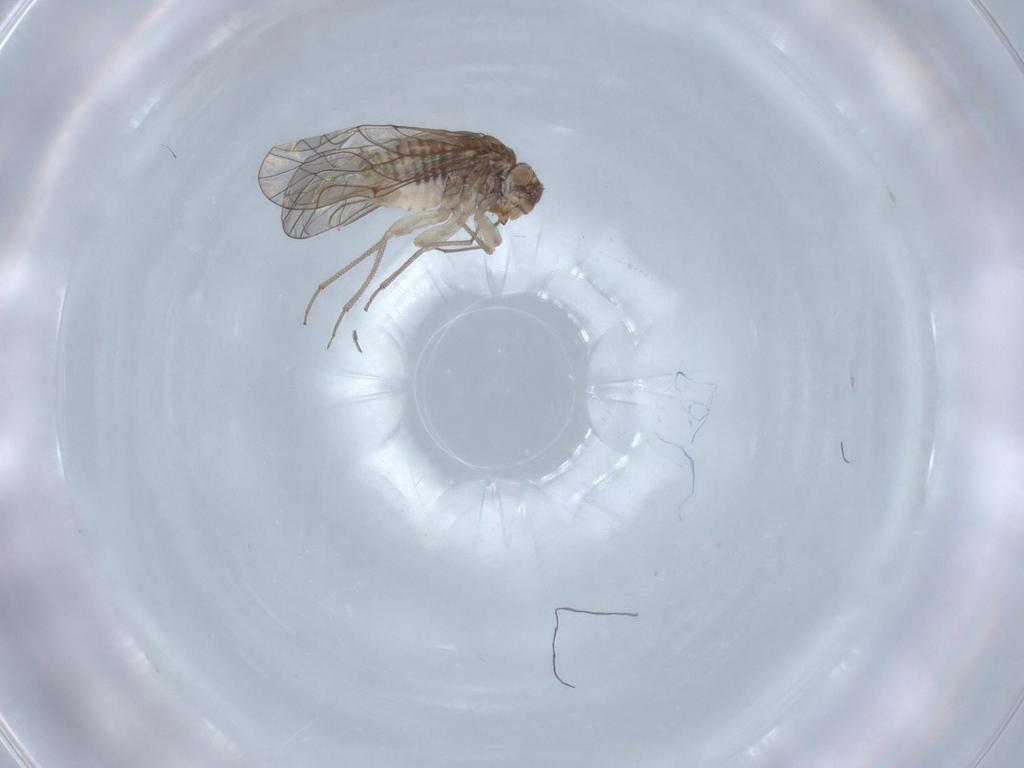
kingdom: Animalia
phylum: Arthropoda
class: Insecta
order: Psocodea
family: Lachesillidae
